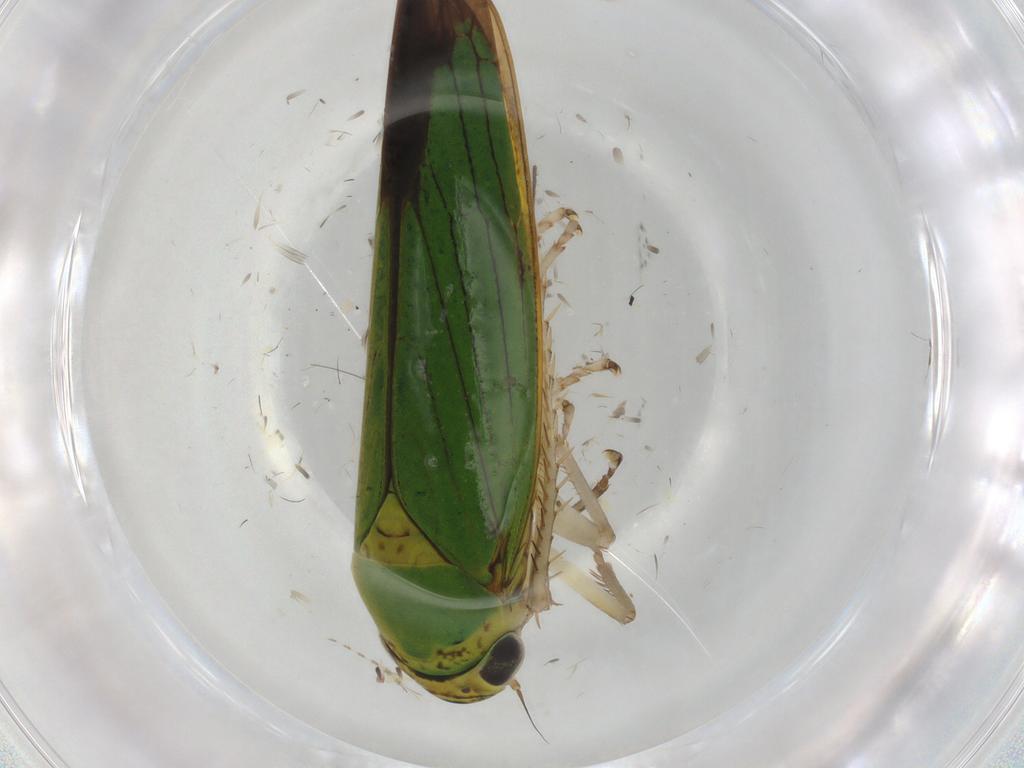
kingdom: Animalia
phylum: Arthropoda
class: Insecta
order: Hemiptera
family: Cicadellidae
